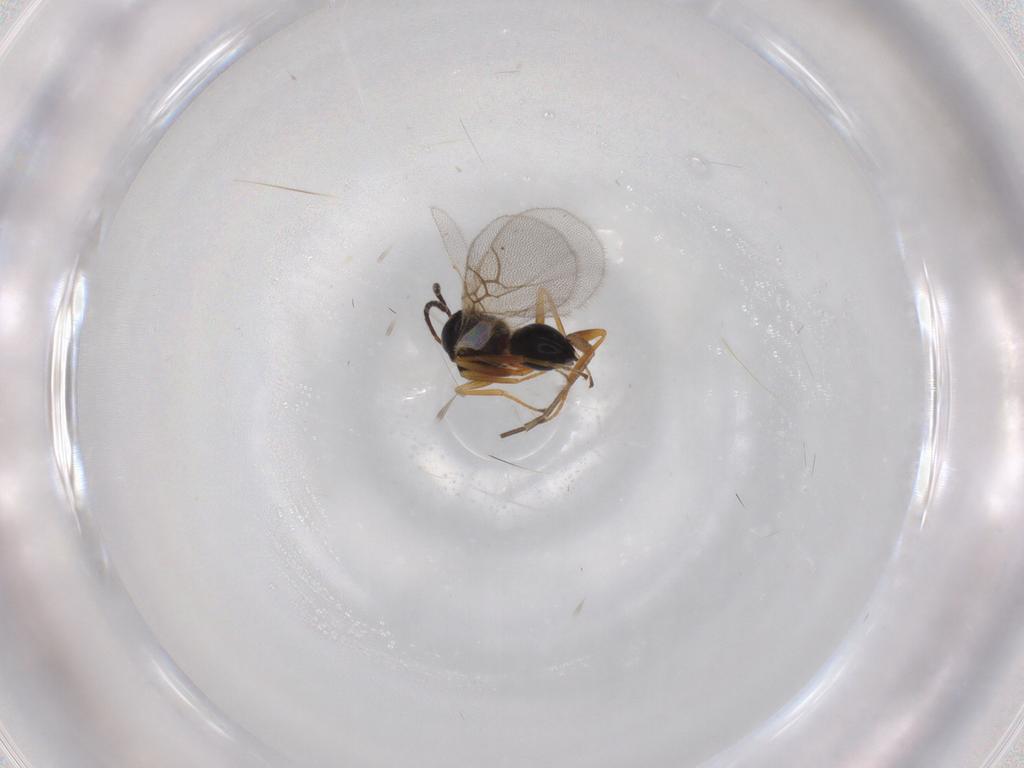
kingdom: Animalia
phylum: Arthropoda
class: Insecta
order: Hymenoptera
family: Figitidae
